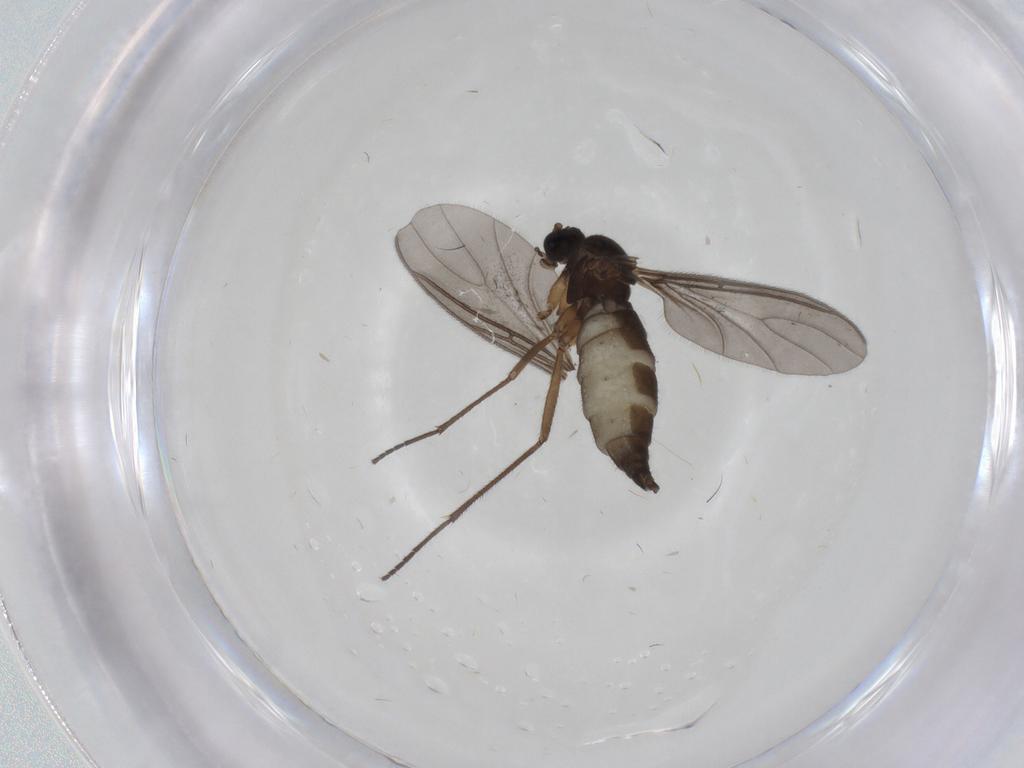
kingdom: Animalia
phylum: Arthropoda
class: Insecta
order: Diptera
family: Sciaridae
